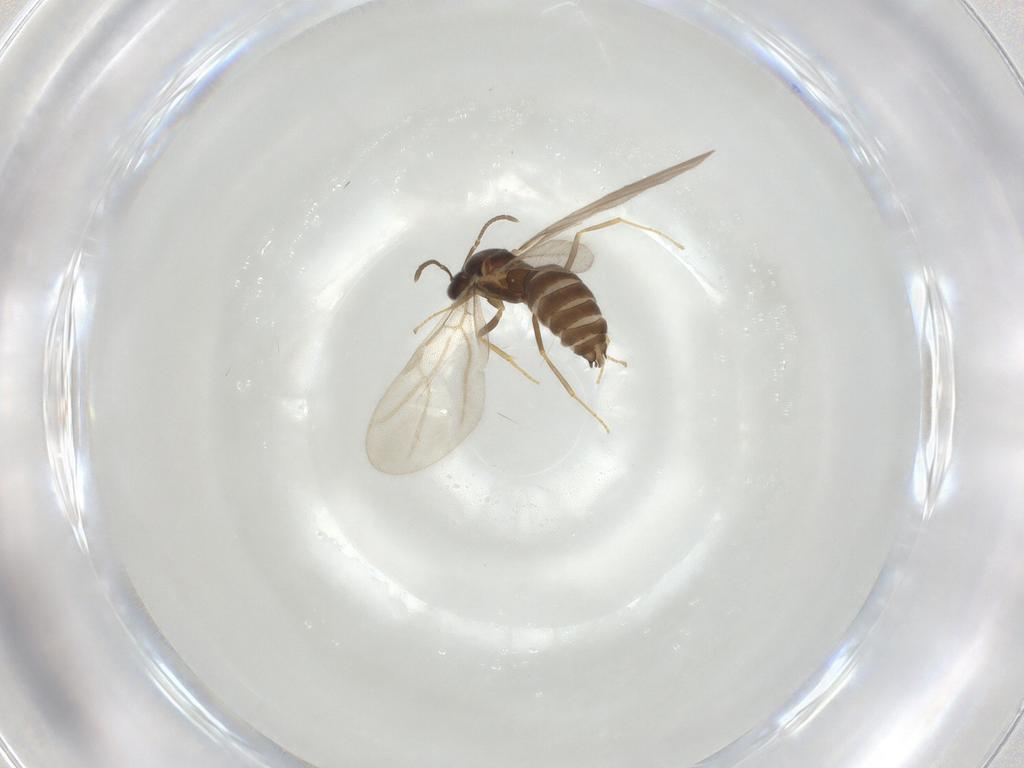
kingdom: Animalia
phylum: Arthropoda
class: Insecta
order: Hymenoptera
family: Formicidae
